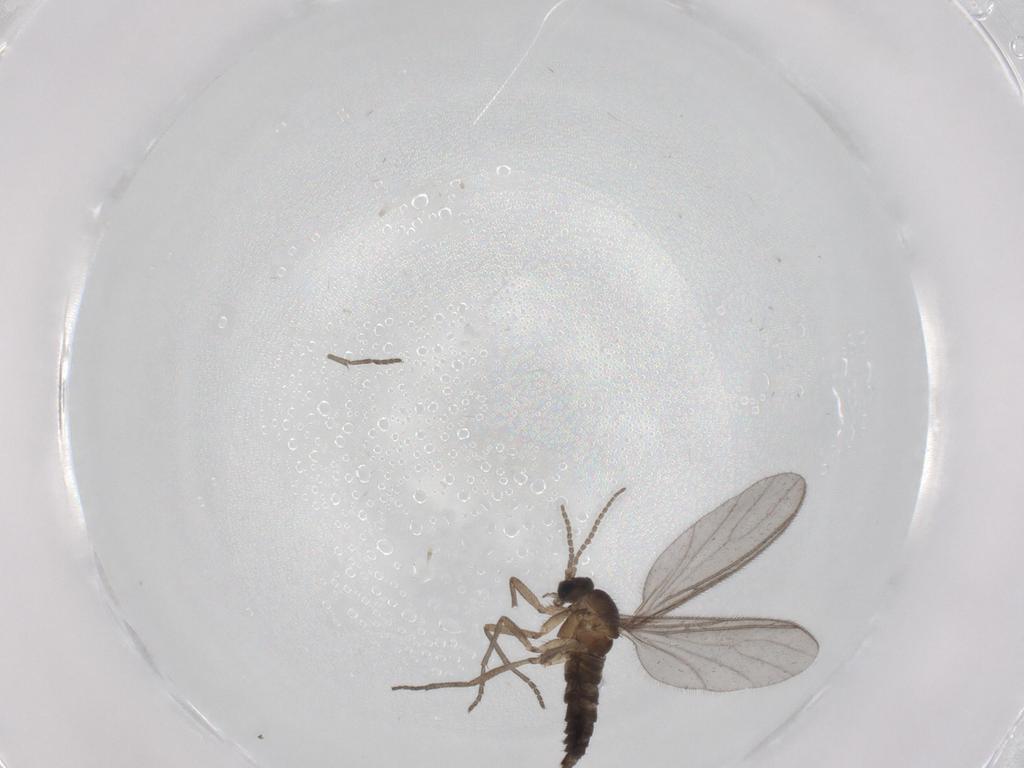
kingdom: Animalia
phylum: Arthropoda
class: Insecta
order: Diptera
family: Sciaridae
